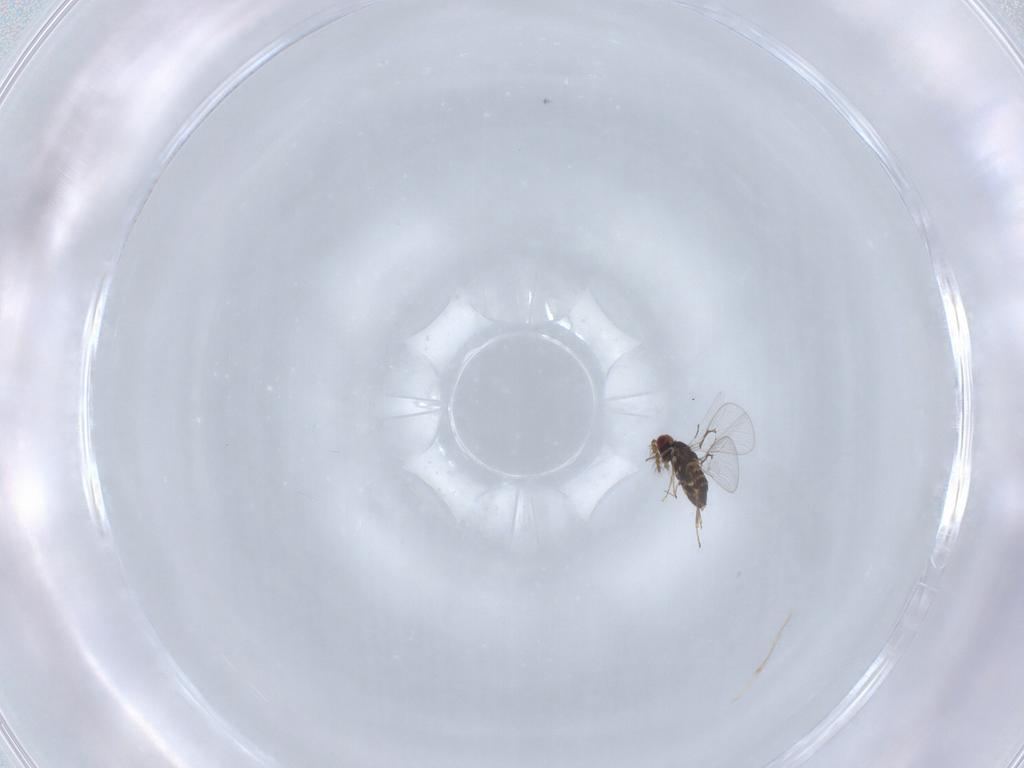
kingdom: Animalia
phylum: Arthropoda
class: Insecta
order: Hymenoptera
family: Trichogrammatidae
